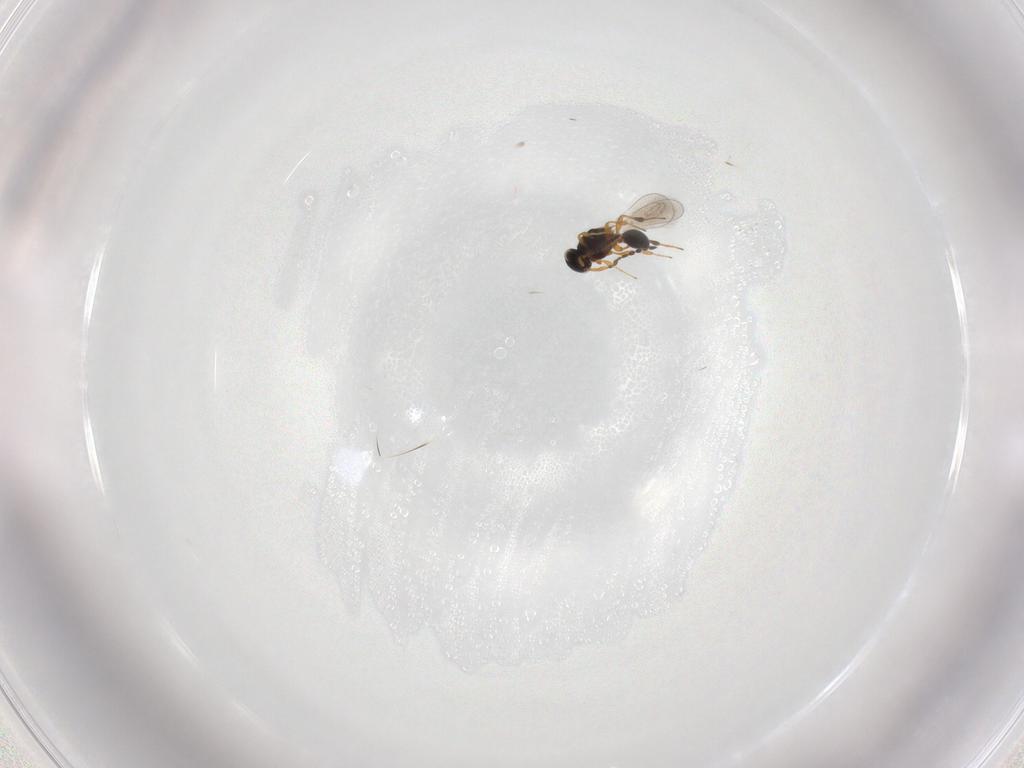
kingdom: Animalia
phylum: Arthropoda
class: Insecta
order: Hymenoptera
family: Platygastridae
